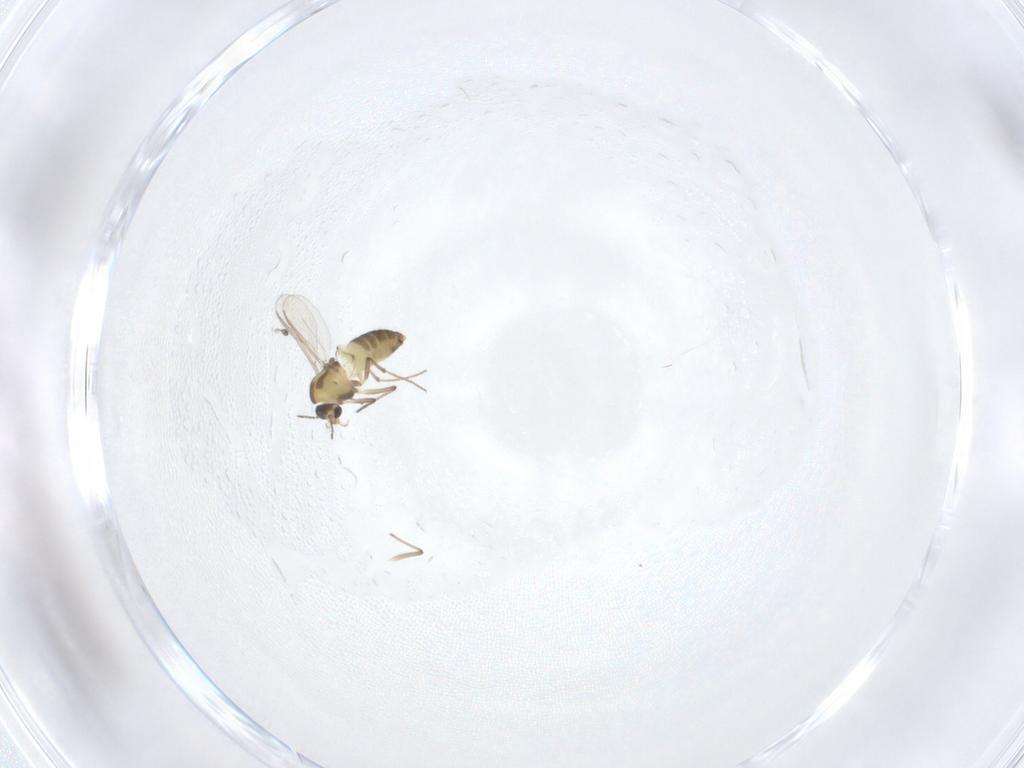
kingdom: Animalia
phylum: Arthropoda
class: Insecta
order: Diptera
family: Chironomidae
